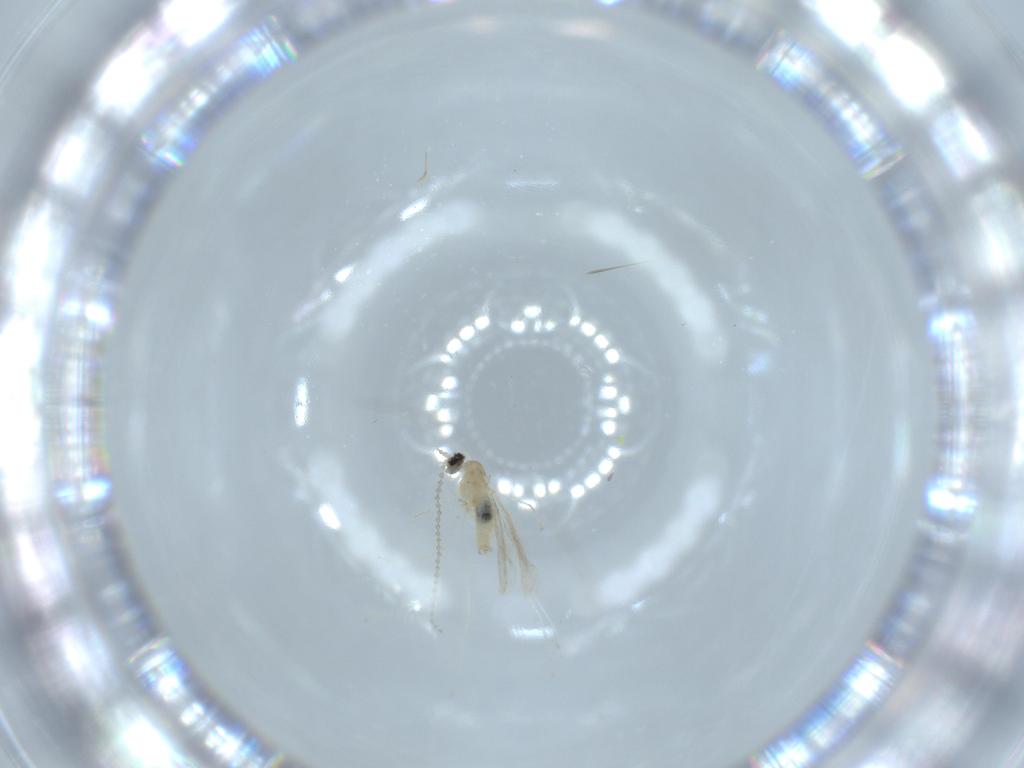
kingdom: Animalia
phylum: Arthropoda
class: Insecta
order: Diptera
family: Cecidomyiidae
